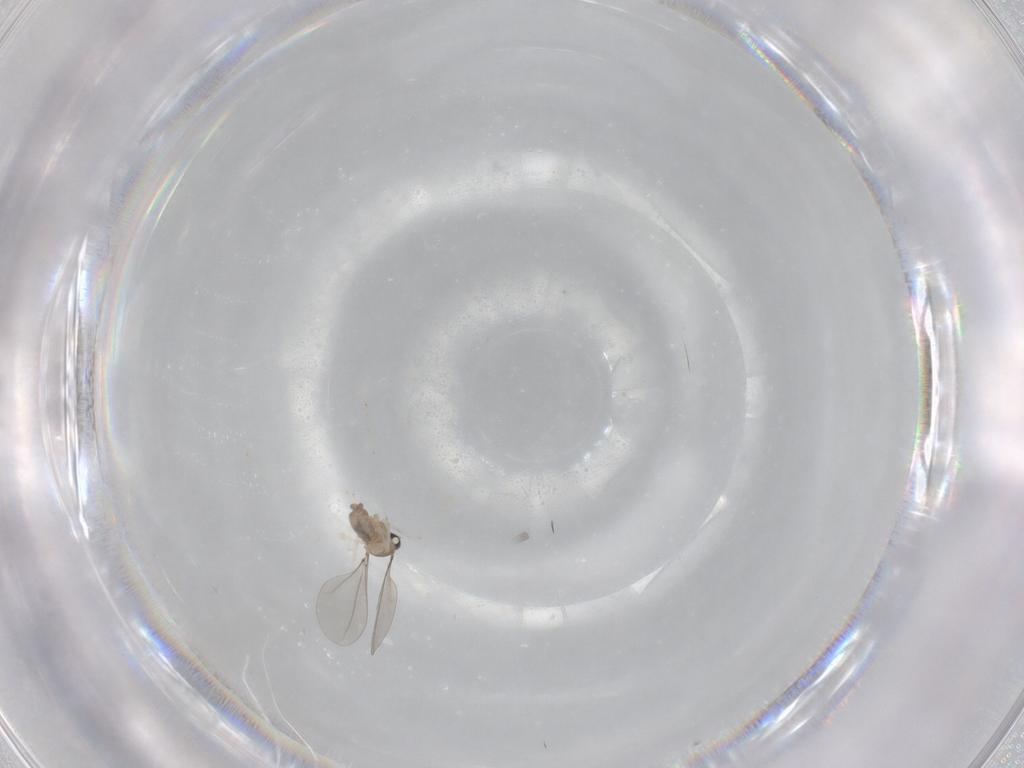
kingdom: Animalia
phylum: Arthropoda
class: Insecta
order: Diptera
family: Cecidomyiidae
